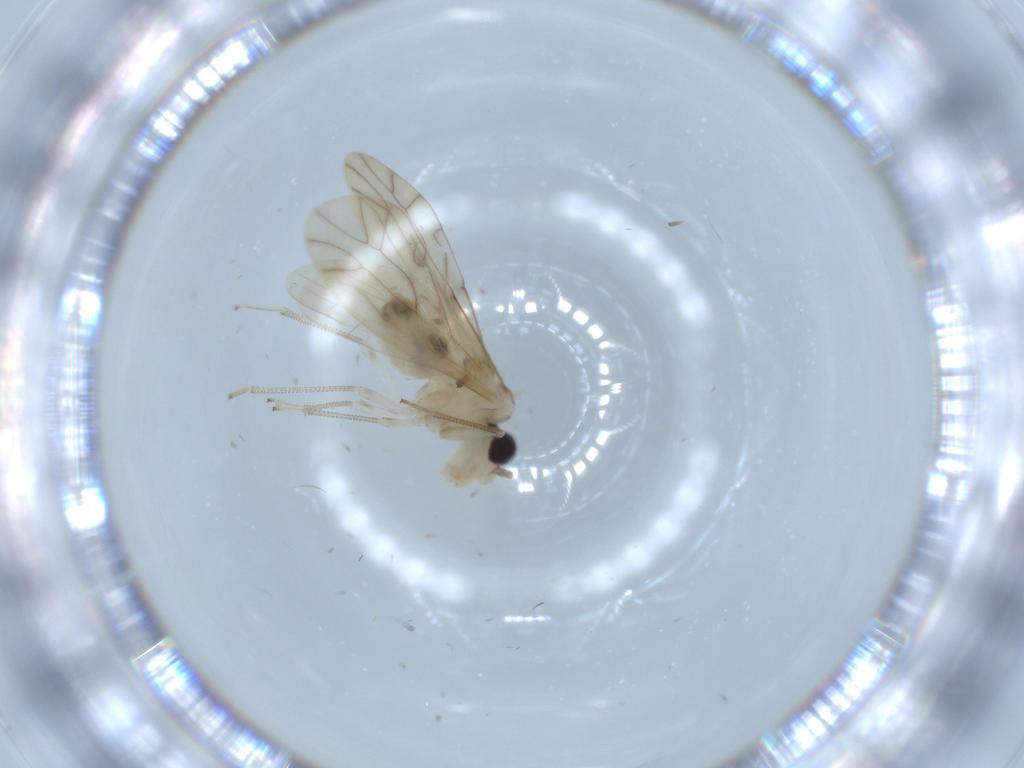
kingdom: Animalia
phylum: Arthropoda
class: Insecta
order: Psocodea
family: Caeciliusidae
